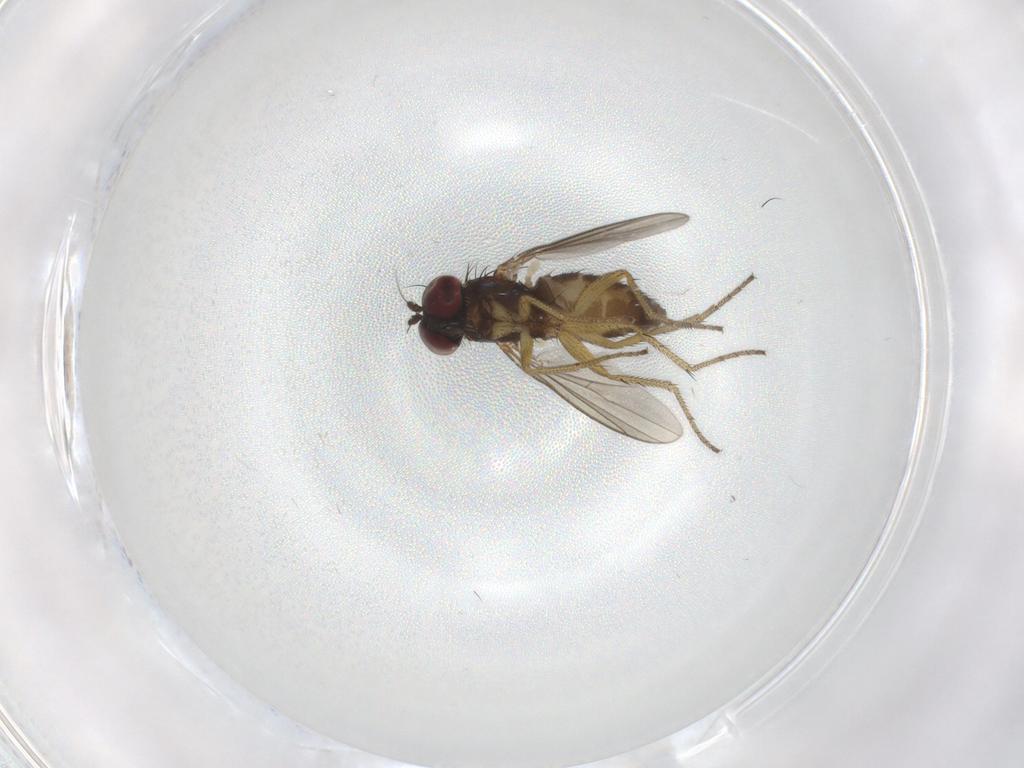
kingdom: Animalia
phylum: Arthropoda
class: Insecta
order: Diptera
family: Dolichopodidae
